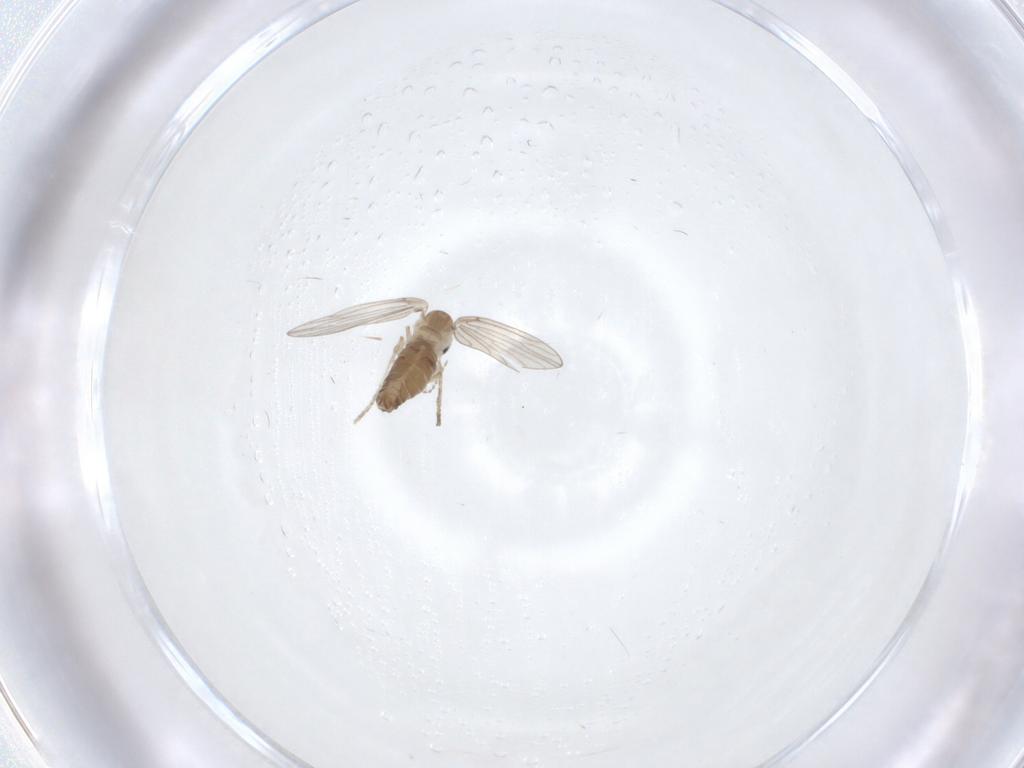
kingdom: Animalia
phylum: Arthropoda
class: Insecta
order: Diptera
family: Cecidomyiidae
